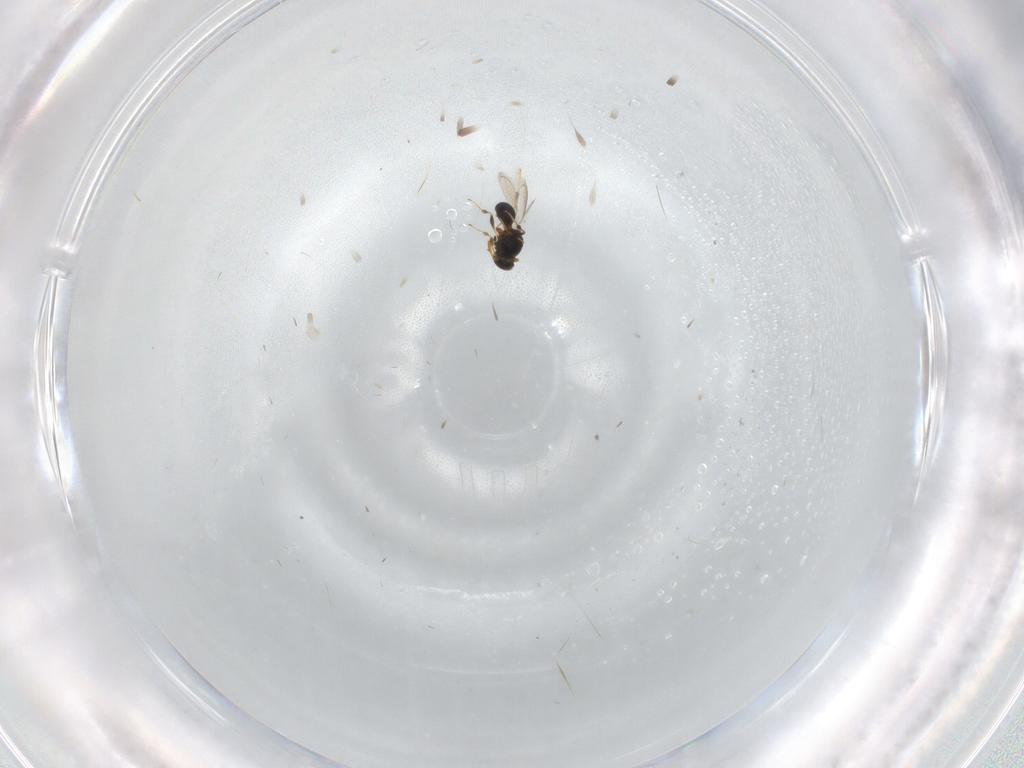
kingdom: Animalia
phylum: Arthropoda
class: Insecta
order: Hymenoptera
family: Platygastridae
